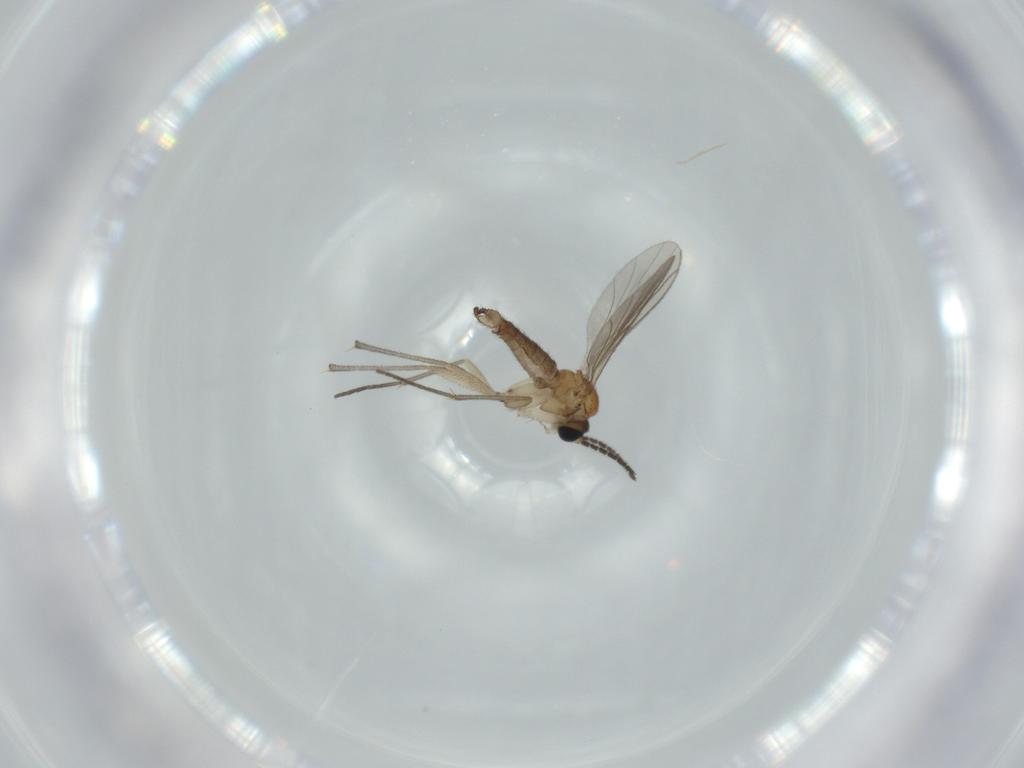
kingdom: Animalia
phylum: Arthropoda
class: Insecta
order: Diptera
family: Sciaridae
